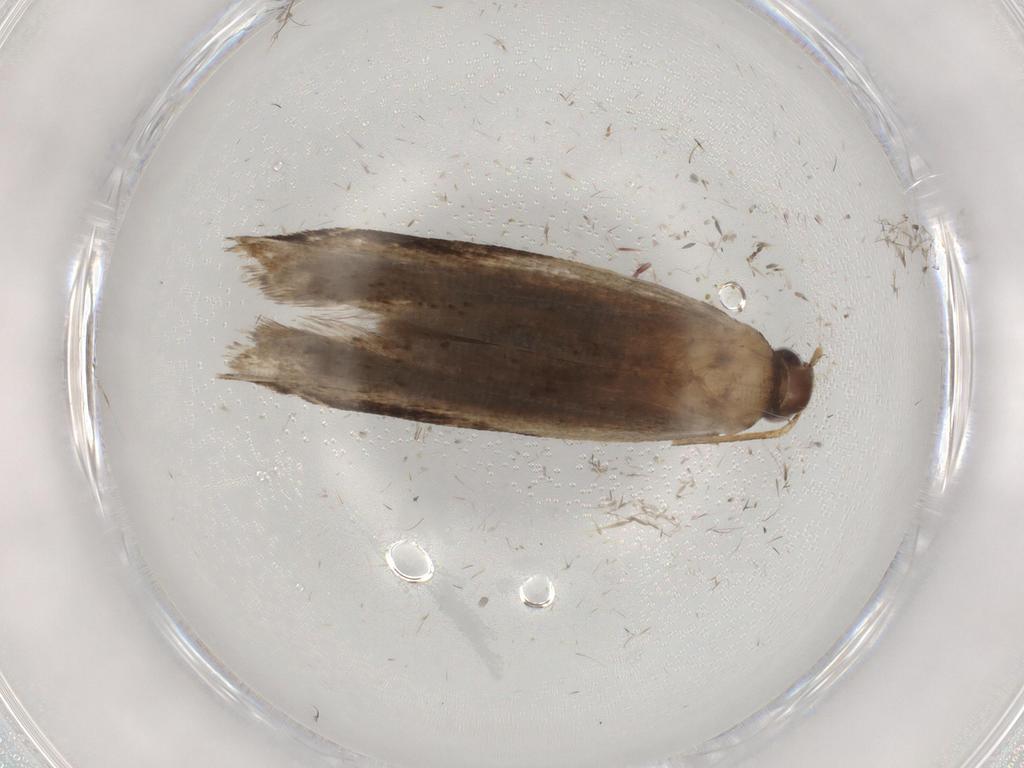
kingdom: Animalia
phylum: Arthropoda
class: Insecta
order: Lepidoptera
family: Gelechiidae
